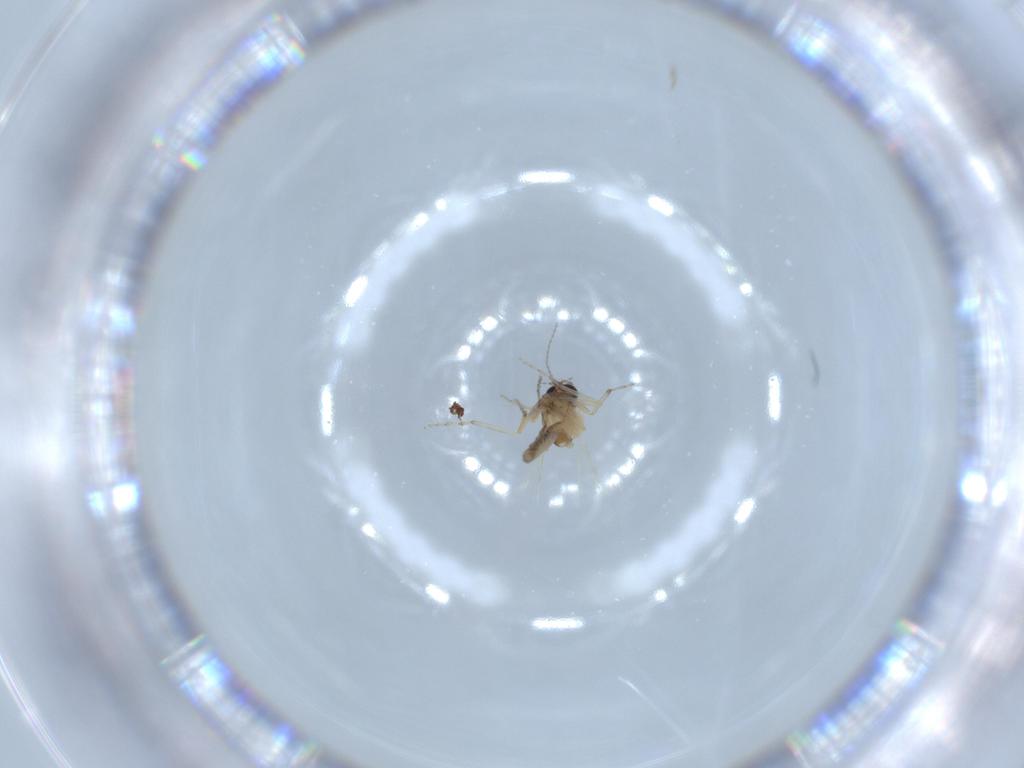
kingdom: Animalia
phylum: Arthropoda
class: Insecta
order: Diptera
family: Ceratopogonidae
